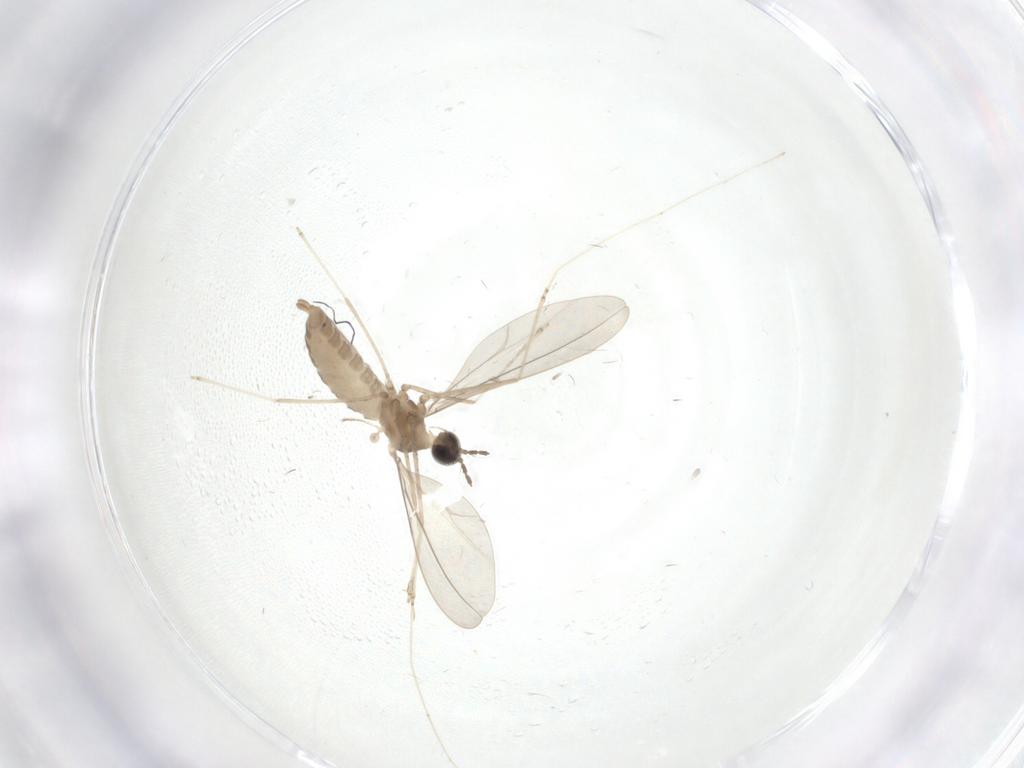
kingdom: Animalia
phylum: Arthropoda
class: Insecta
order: Diptera
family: Cecidomyiidae
